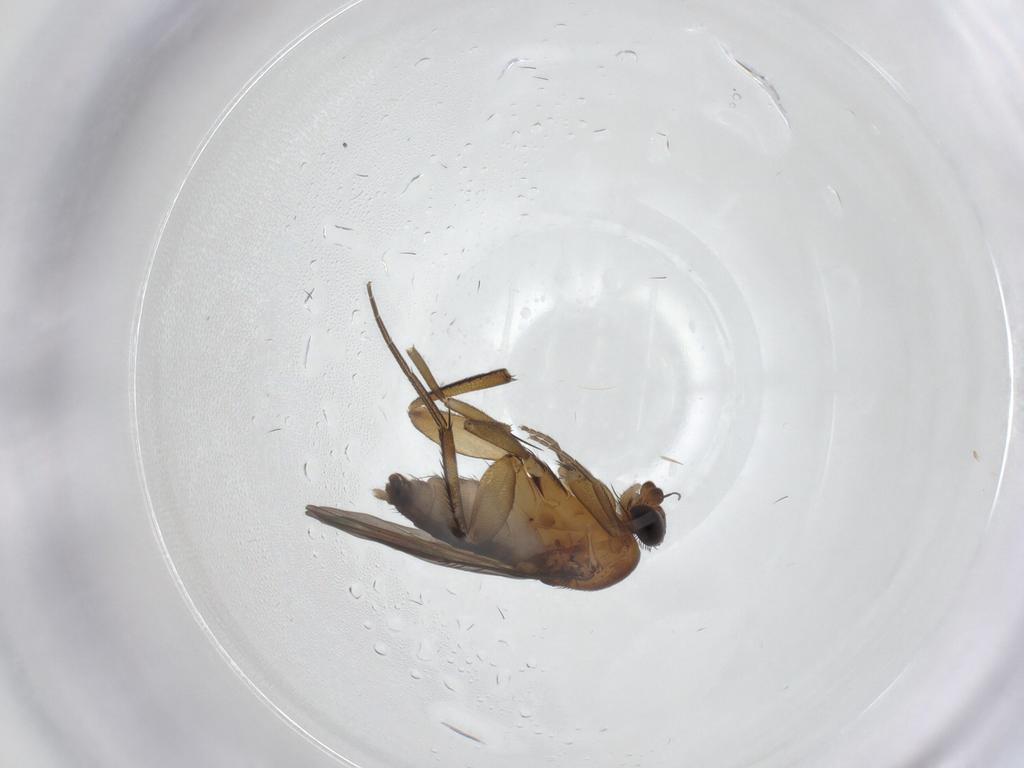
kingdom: Animalia
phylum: Arthropoda
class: Insecta
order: Diptera
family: Phoridae
